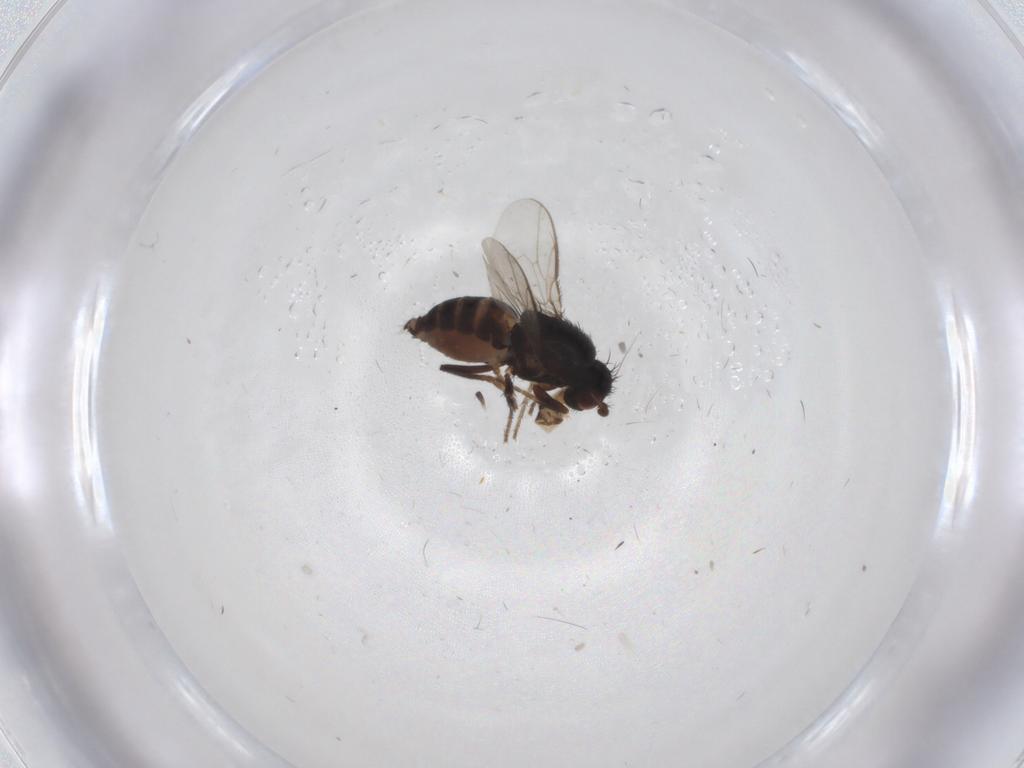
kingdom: Animalia
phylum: Arthropoda
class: Insecta
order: Diptera
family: Sphaeroceridae
